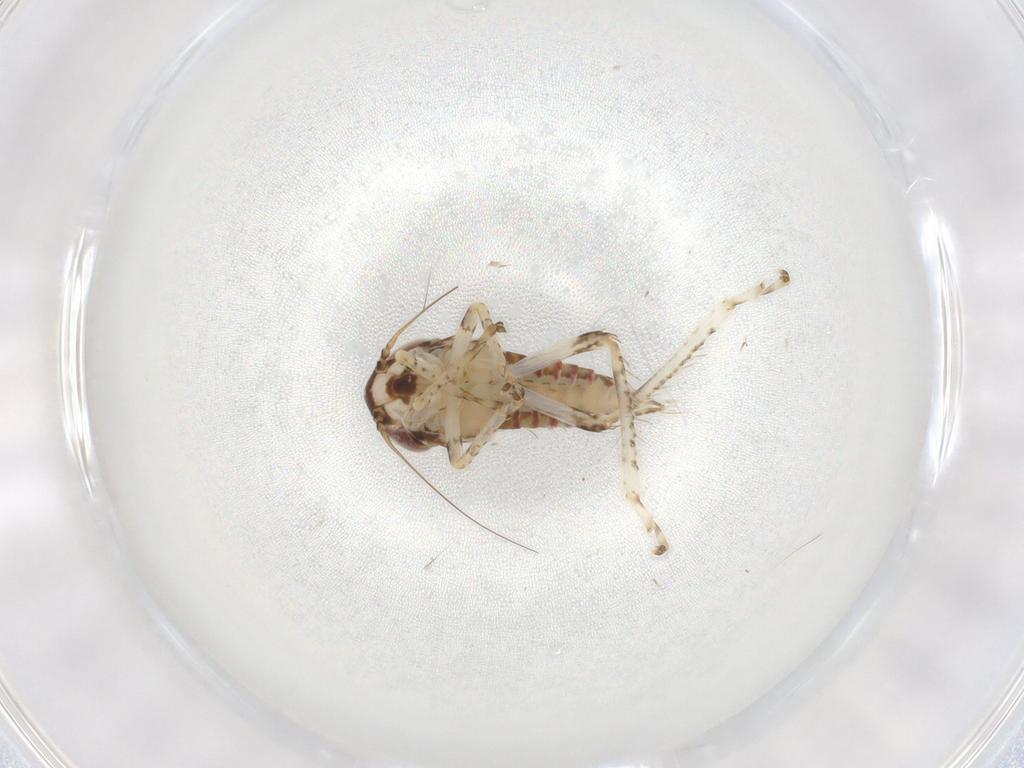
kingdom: Animalia
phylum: Arthropoda
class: Insecta
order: Hemiptera
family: Cicadellidae
